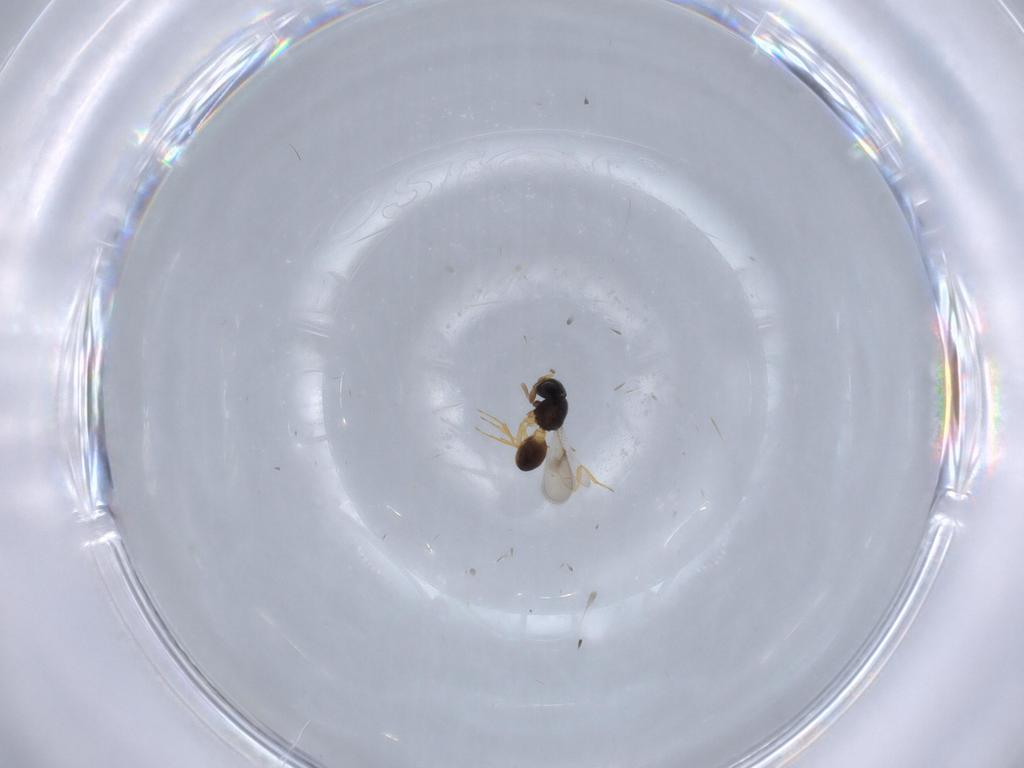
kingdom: Animalia
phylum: Arthropoda
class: Insecta
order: Hymenoptera
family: Scelionidae
